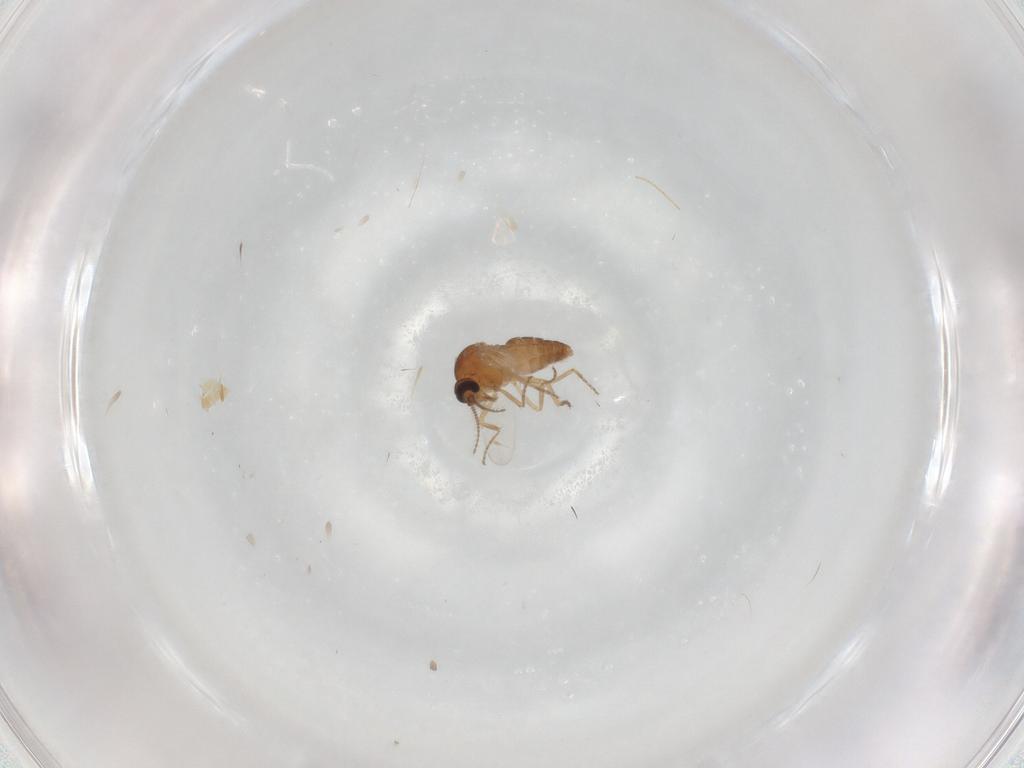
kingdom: Animalia
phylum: Arthropoda
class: Insecta
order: Diptera
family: Ceratopogonidae
